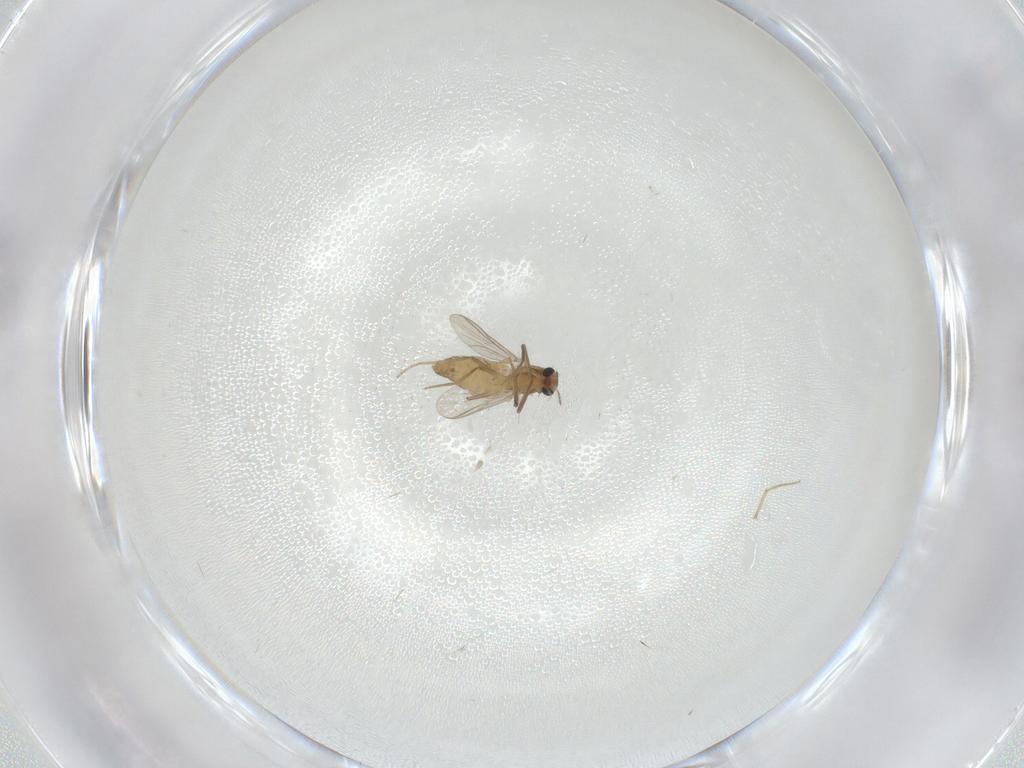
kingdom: Animalia
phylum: Arthropoda
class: Insecta
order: Diptera
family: Chironomidae
